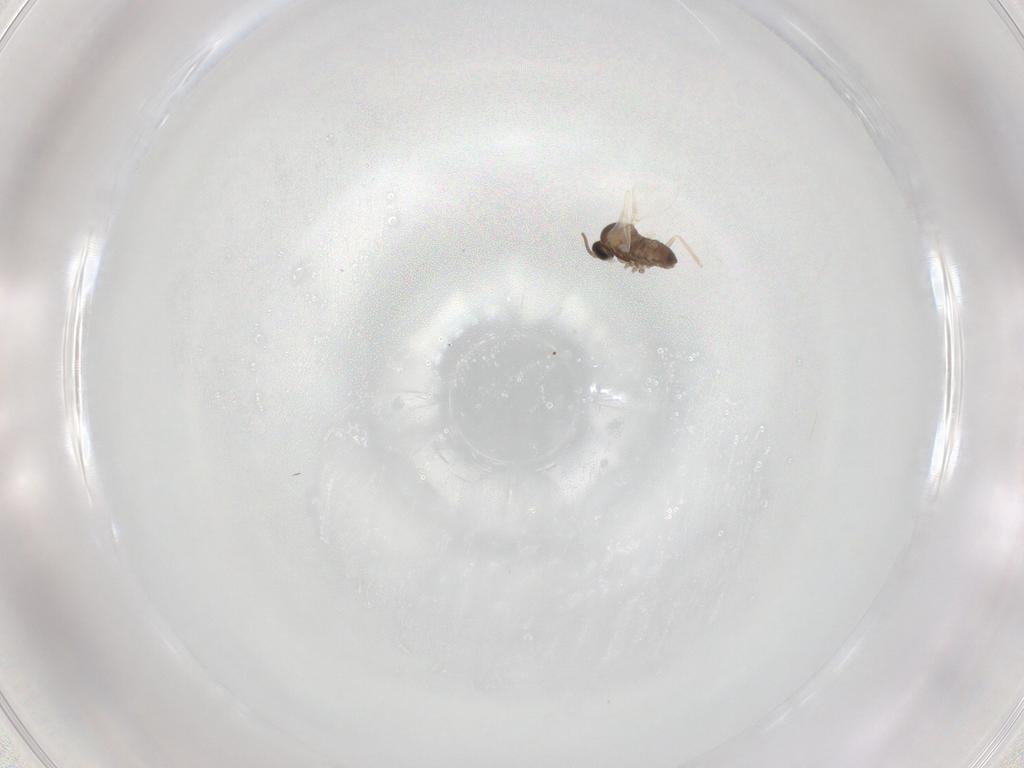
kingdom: Animalia
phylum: Arthropoda
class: Insecta
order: Diptera
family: Cecidomyiidae
